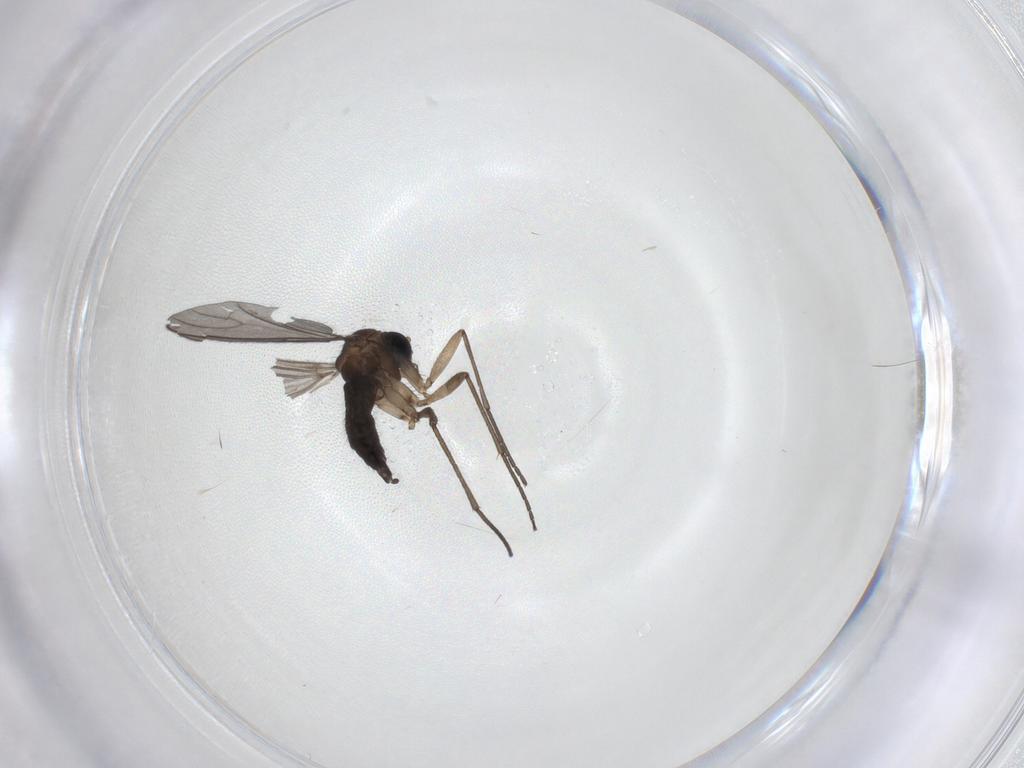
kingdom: Animalia
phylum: Arthropoda
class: Insecta
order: Diptera
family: Sciaridae
